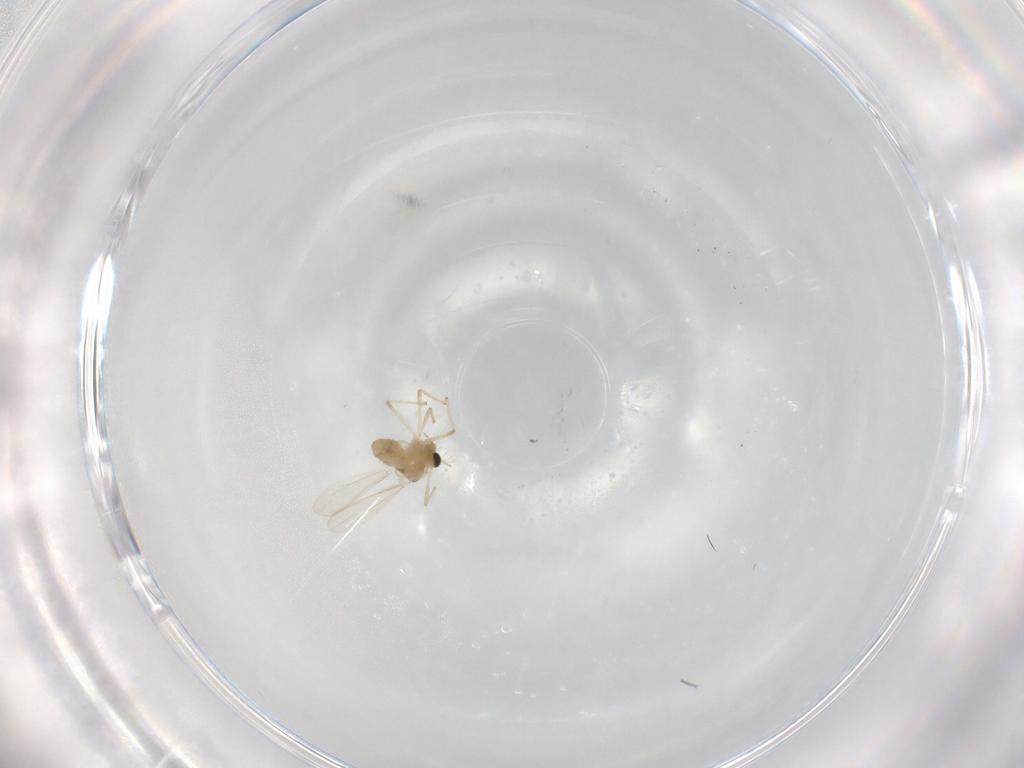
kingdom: Animalia
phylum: Arthropoda
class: Insecta
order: Diptera
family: Chironomidae
